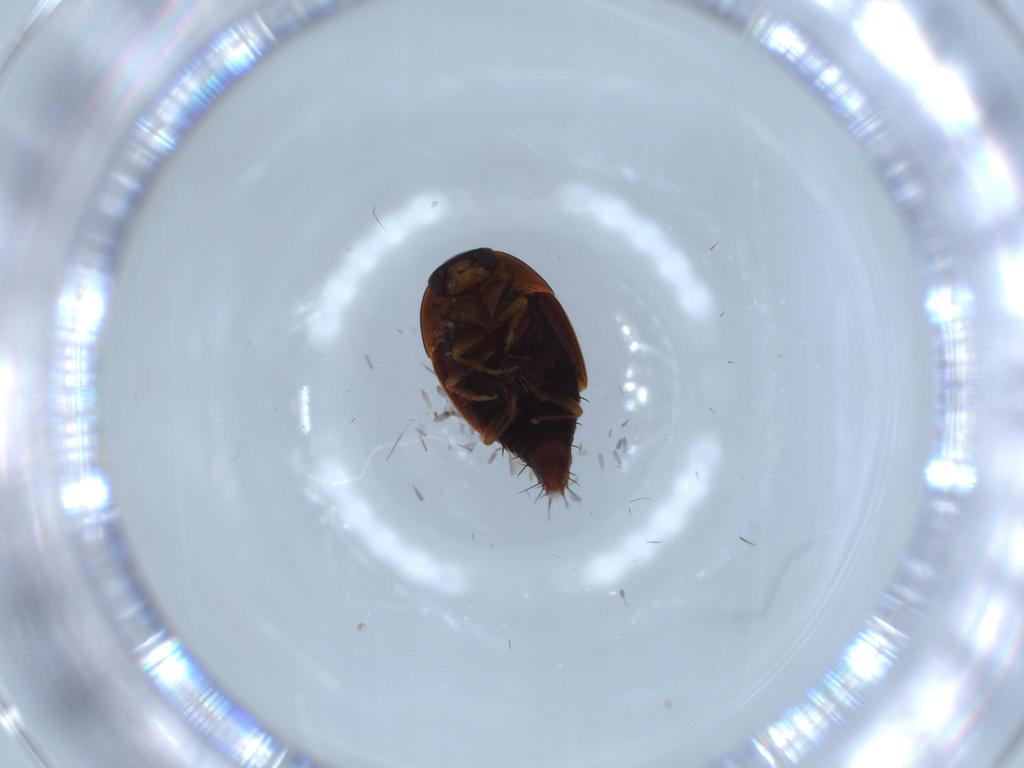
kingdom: Animalia
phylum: Arthropoda
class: Insecta
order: Coleoptera
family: Staphylinidae
